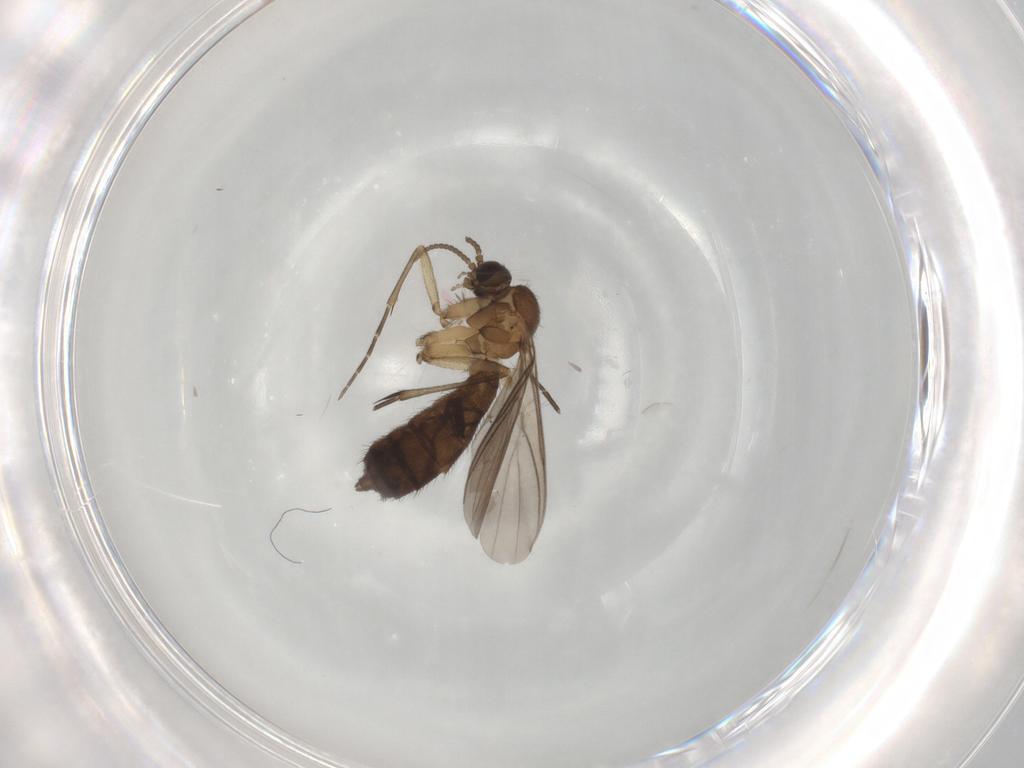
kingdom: Animalia
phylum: Arthropoda
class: Insecta
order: Diptera
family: Keroplatidae
